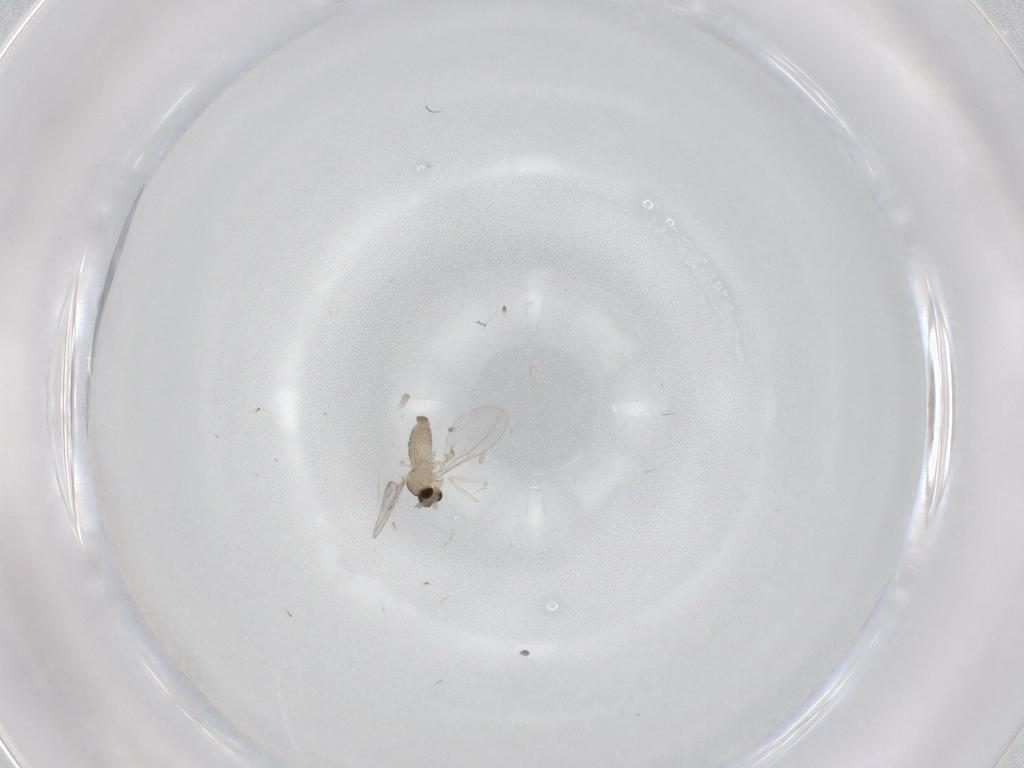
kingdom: Animalia
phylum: Arthropoda
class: Insecta
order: Diptera
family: Cecidomyiidae
